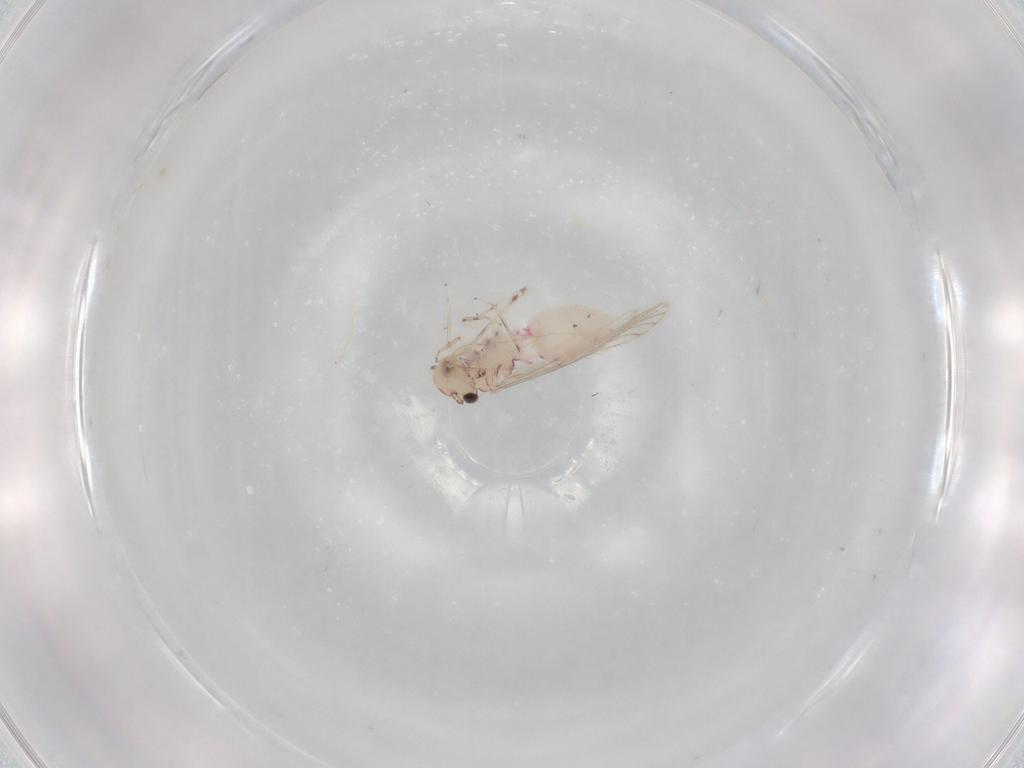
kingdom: Animalia
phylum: Arthropoda
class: Insecta
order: Psocodea
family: Caeciliusidae
